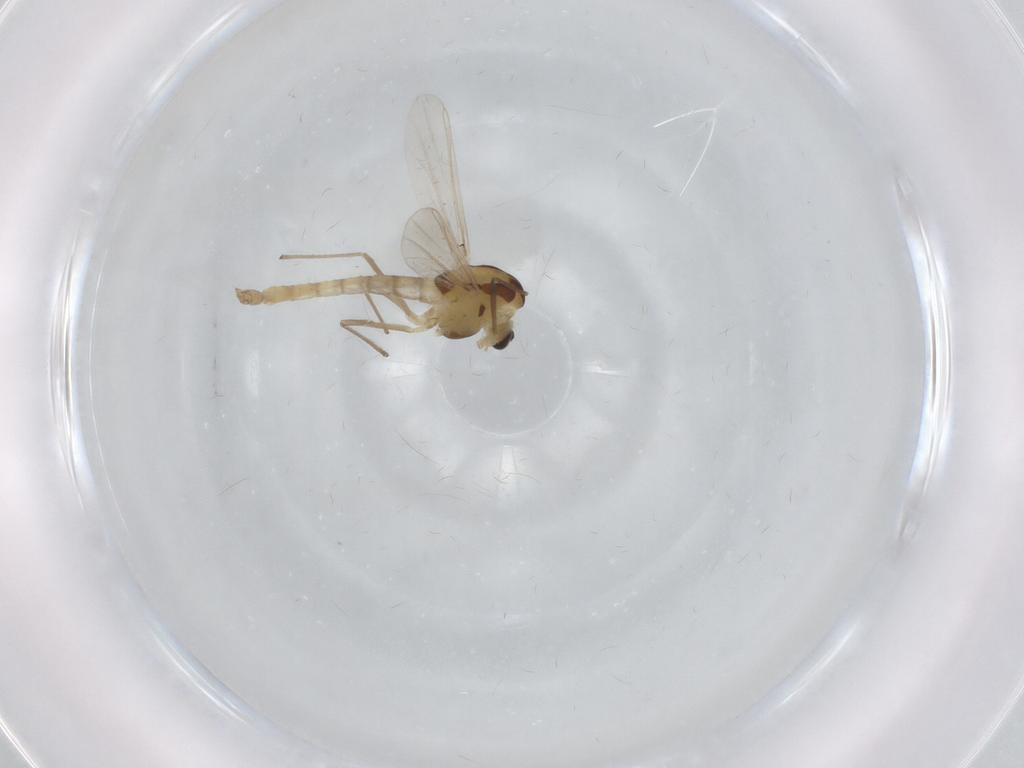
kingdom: Animalia
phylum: Arthropoda
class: Insecta
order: Diptera
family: Chironomidae
